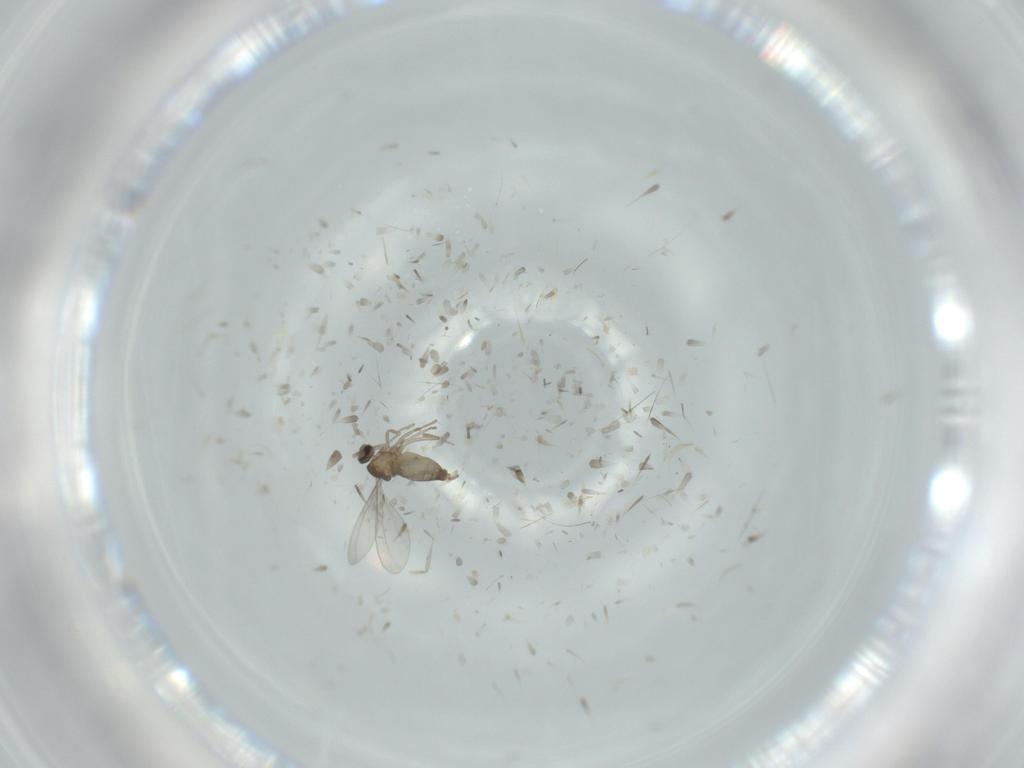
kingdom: Animalia
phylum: Arthropoda
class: Insecta
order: Diptera
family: Cecidomyiidae
